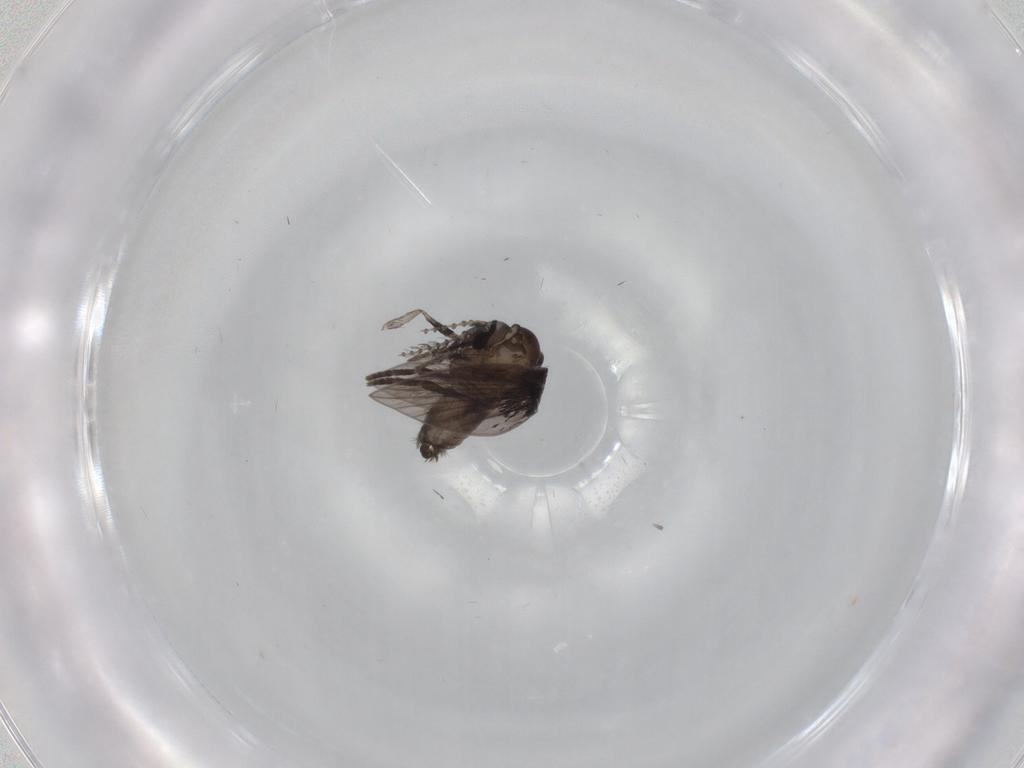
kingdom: Animalia
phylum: Arthropoda
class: Insecta
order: Diptera
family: Psychodidae
